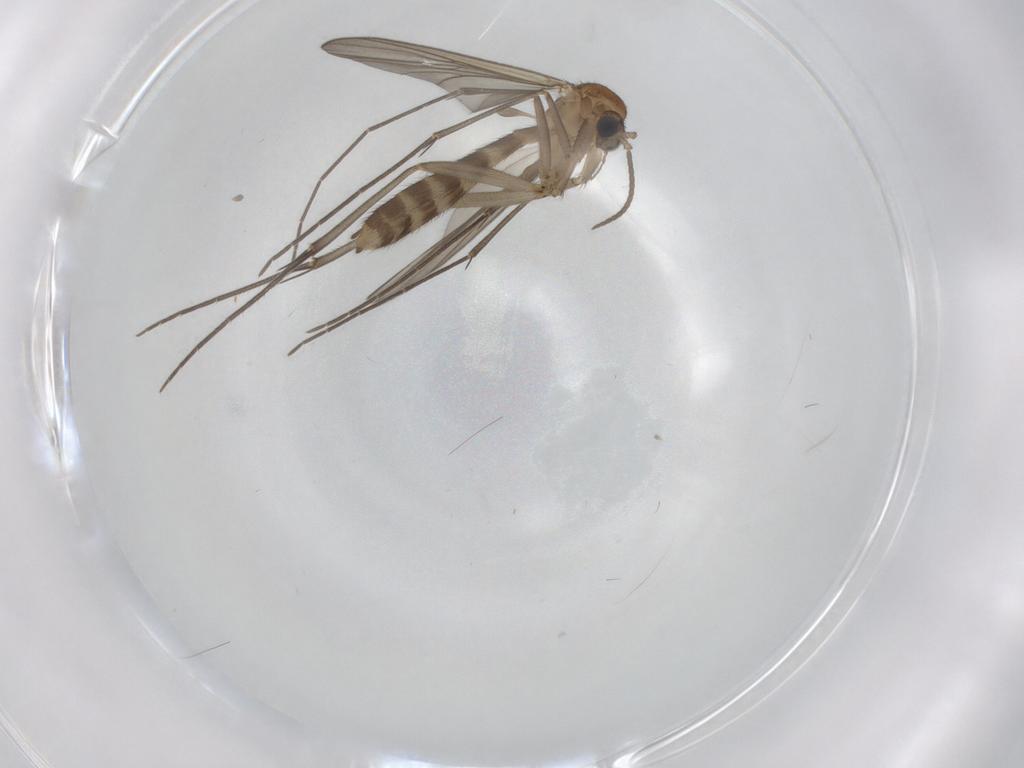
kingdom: Animalia
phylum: Arthropoda
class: Insecta
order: Diptera
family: Mycetophilidae
